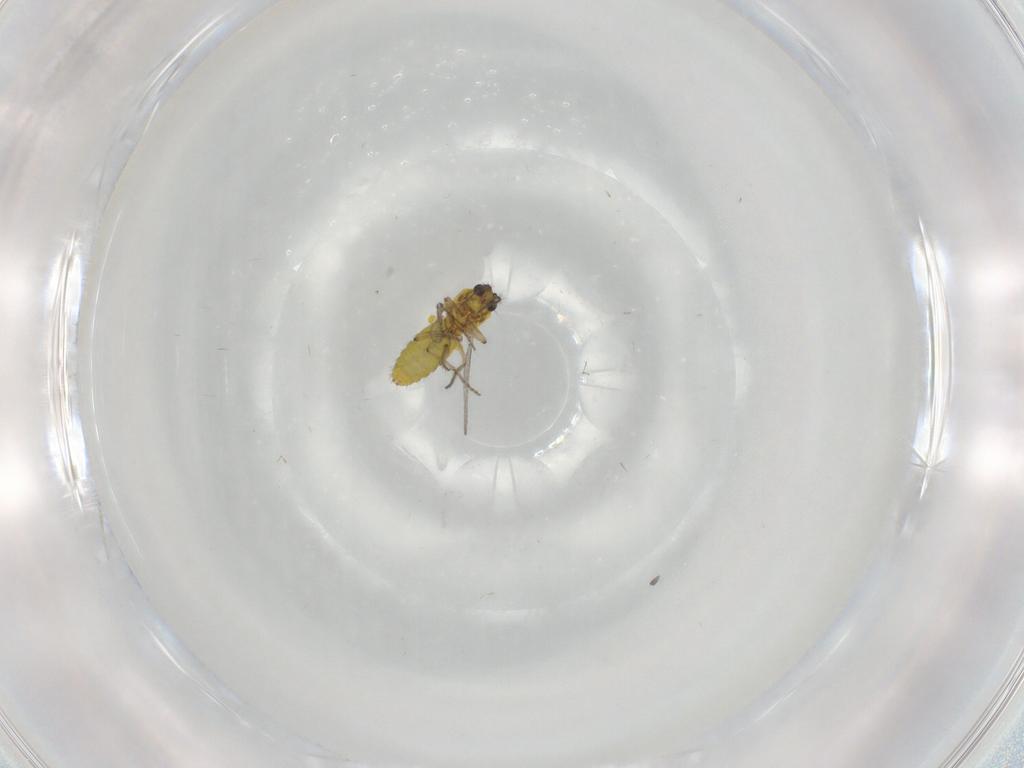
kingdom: Animalia
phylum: Arthropoda
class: Insecta
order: Diptera
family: Ceratopogonidae
